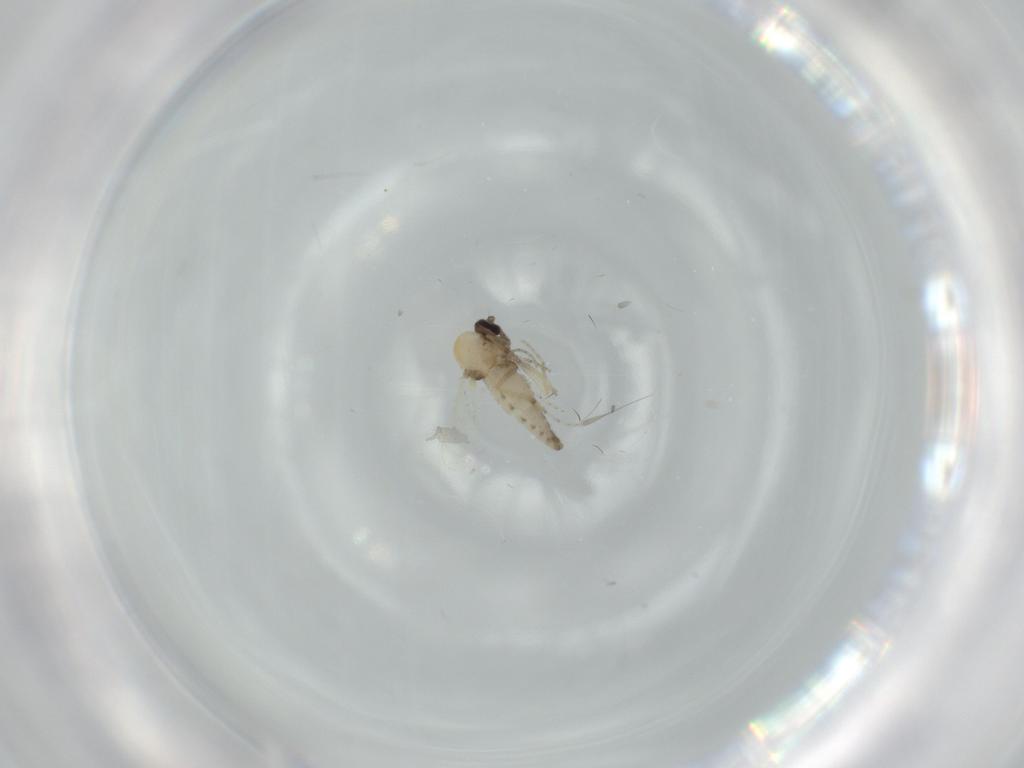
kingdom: Animalia
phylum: Arthropoda
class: Insecta
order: Diptera
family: Ceratopogonidae
